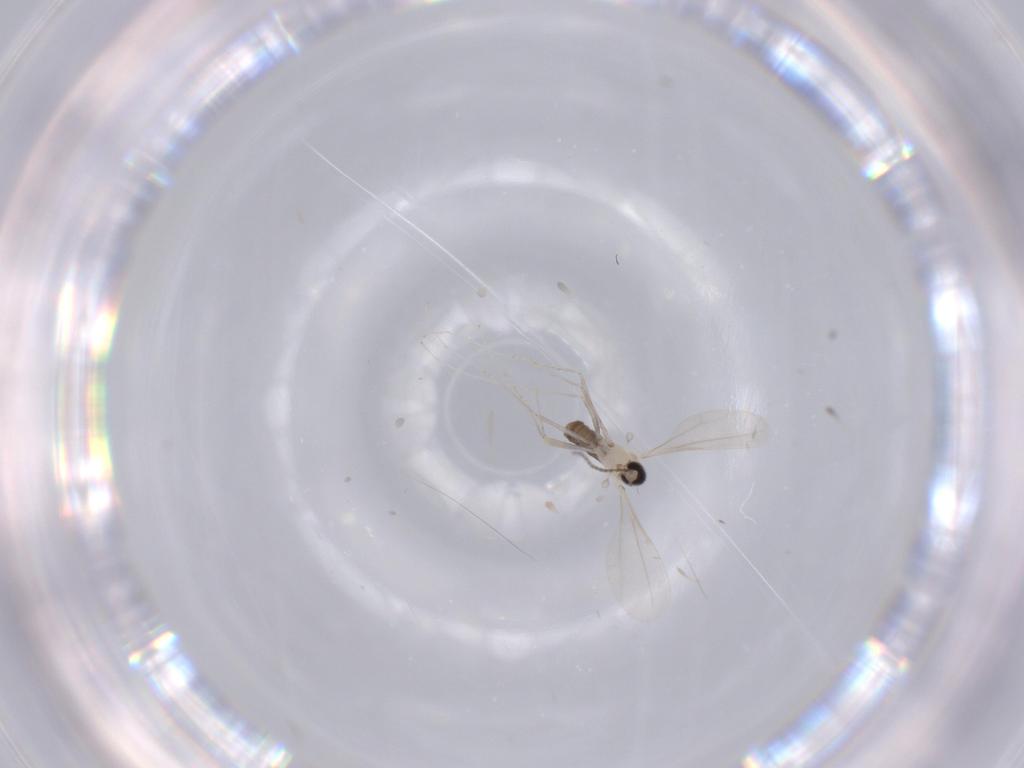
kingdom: Animalia
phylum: Arthropoda
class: Insecta
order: Diptera
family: Cecidomyiidae
